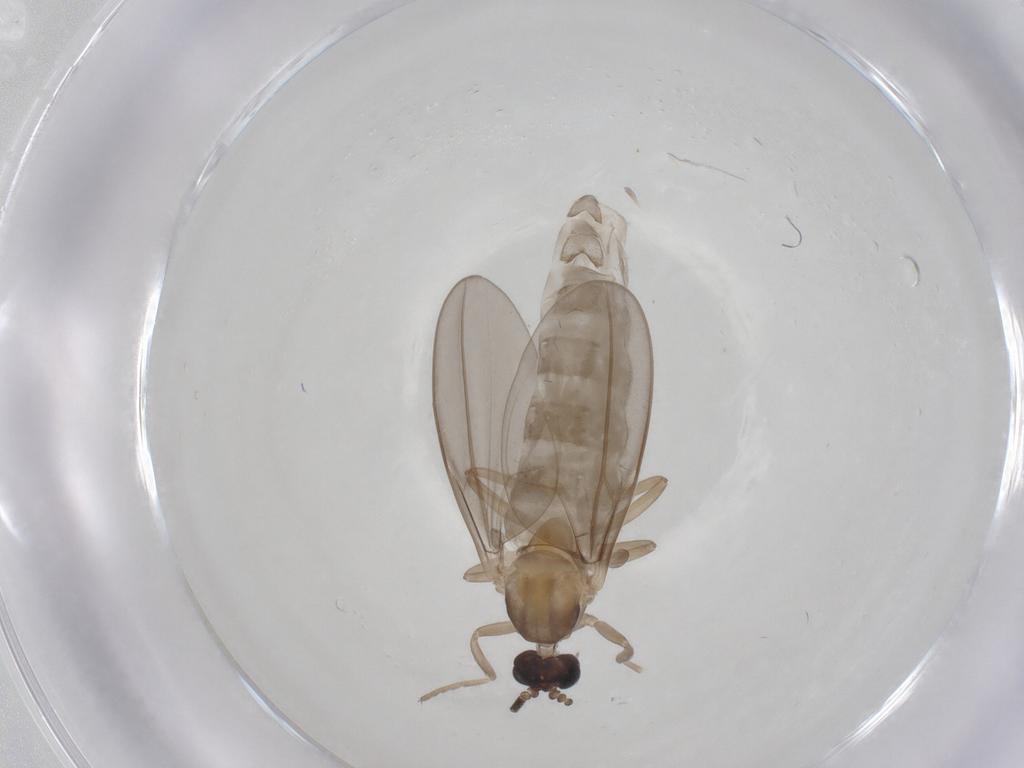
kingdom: Animalia
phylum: Arthropoda
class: Insecta
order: Diptera
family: Cecidomyiidae
